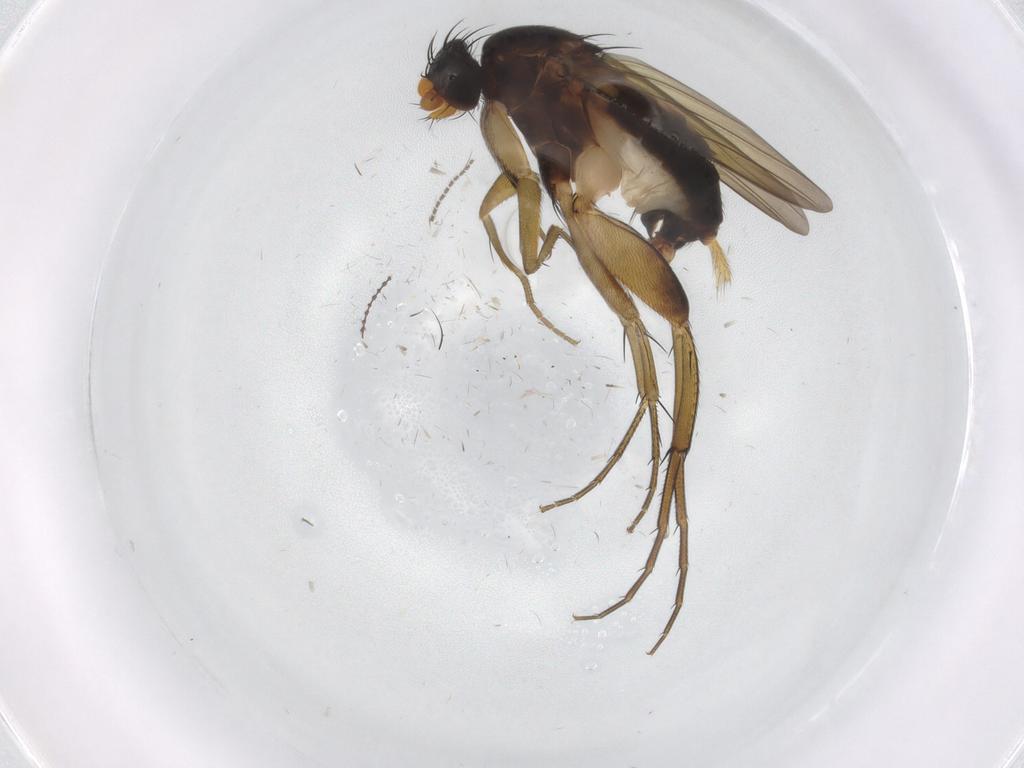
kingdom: Animalia
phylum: Arthropoda
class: Insecta
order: Diptera
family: Phoridae
